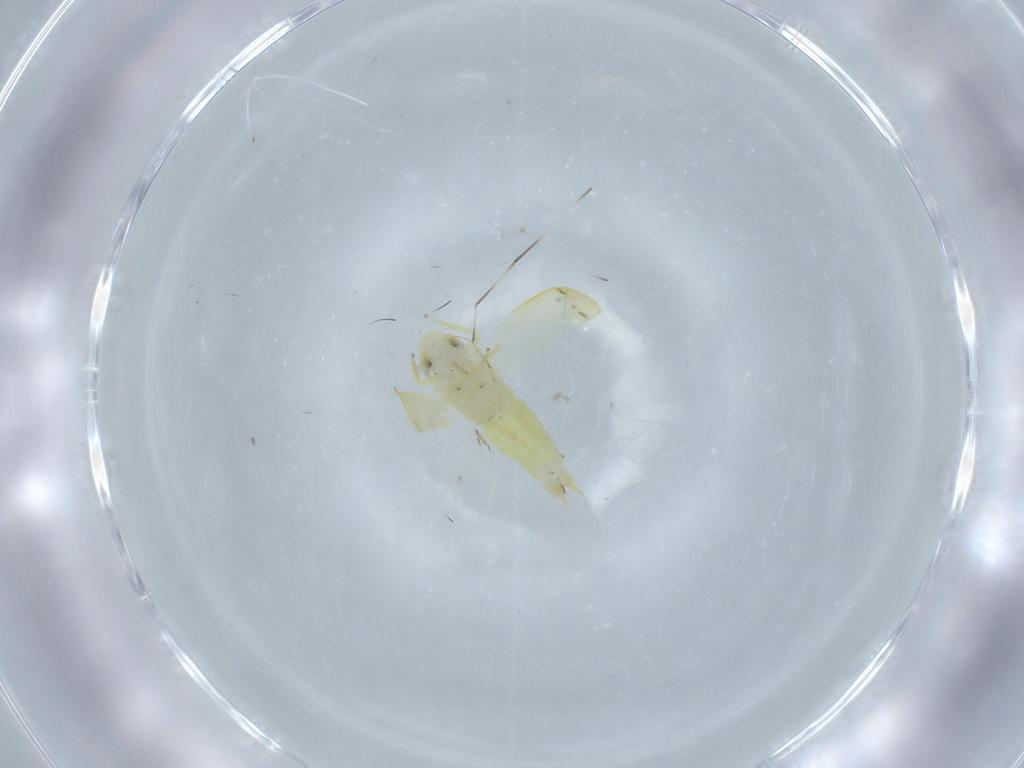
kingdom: Animalia
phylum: Arthropoda
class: Insecta
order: Hemiptera
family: Cicadellidae
